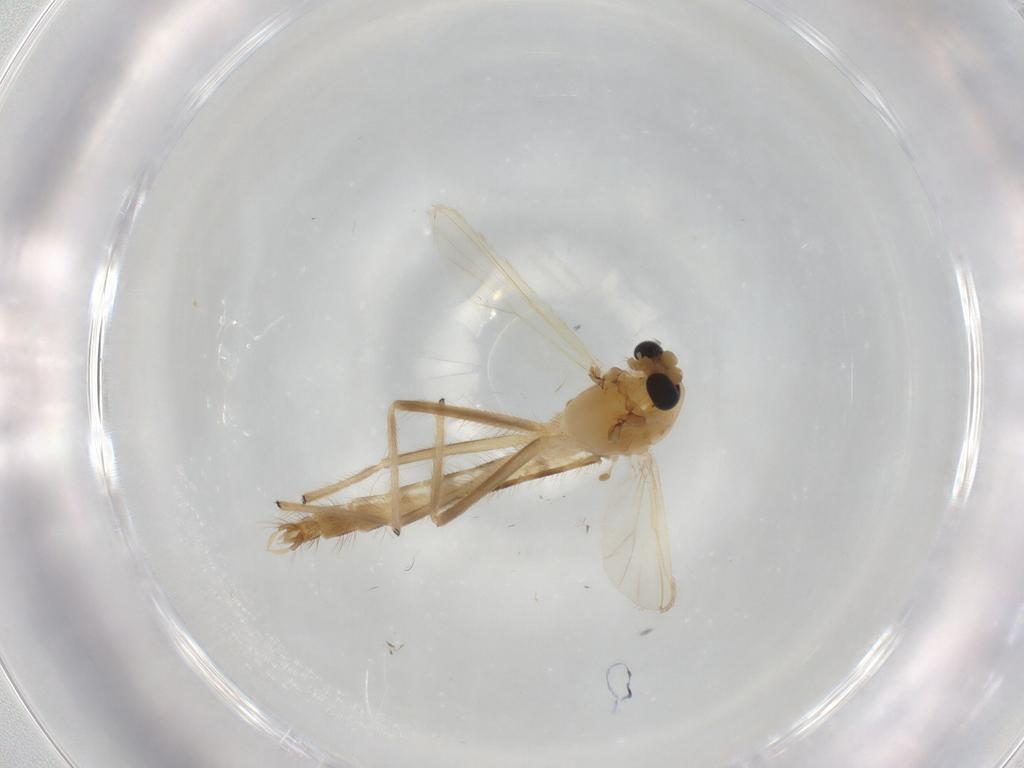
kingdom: Animalia
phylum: Arthropoda
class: Insecta
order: Diptera
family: Chironomidae
